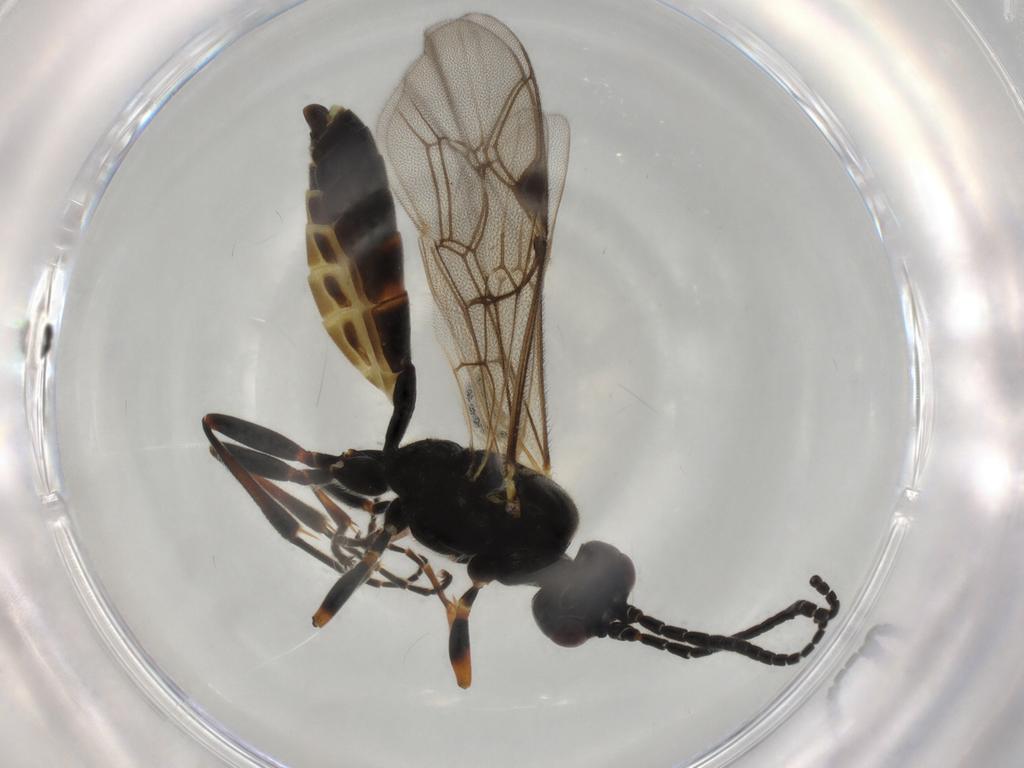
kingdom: Animalia
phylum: Arthropoda
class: Insecta
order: Hymenoptera
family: Ichneumonidae
